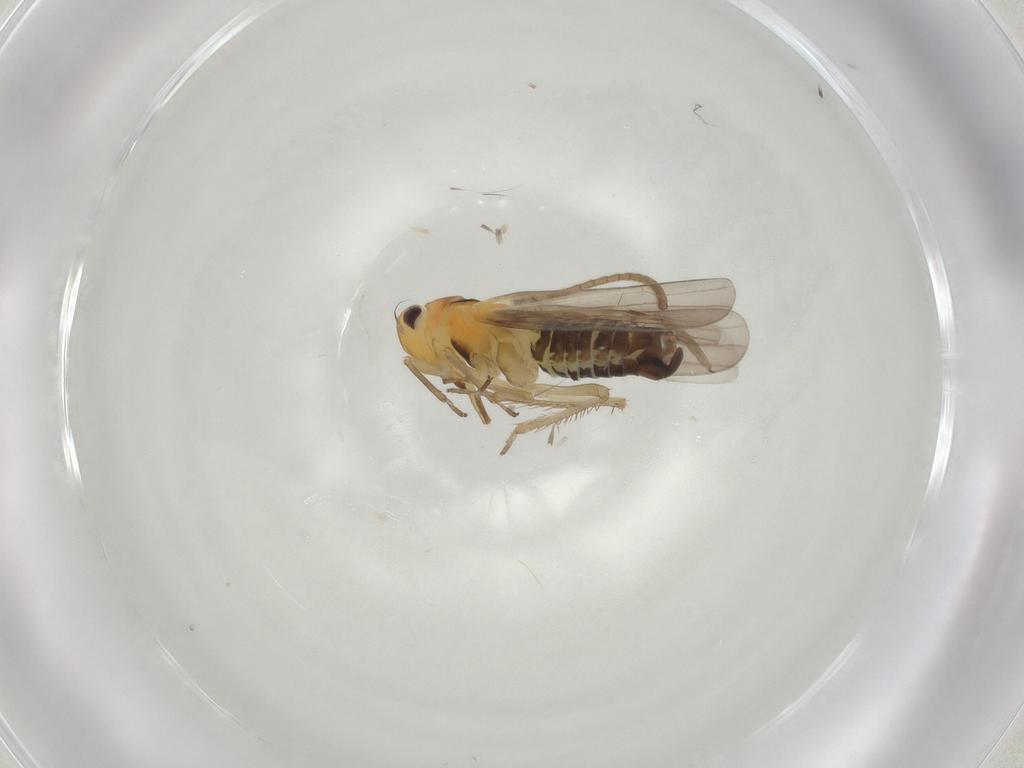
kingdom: Animalia
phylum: Arthropoda
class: Insecta
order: Hemiptera
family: Cicadellidae
